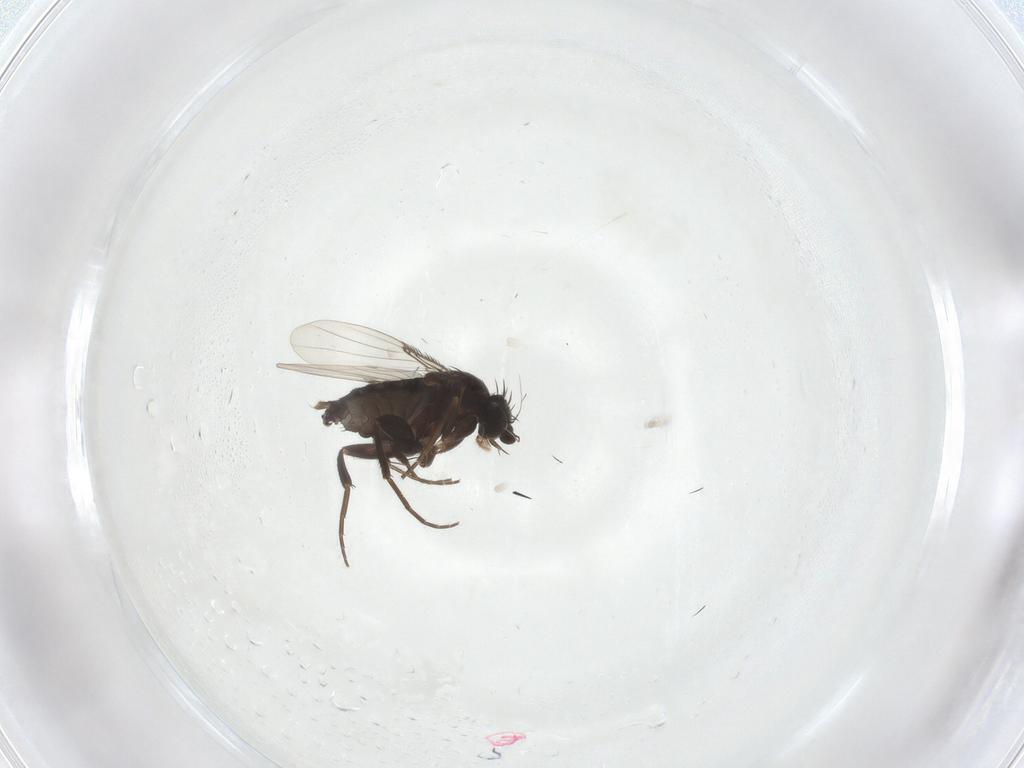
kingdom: Animalia
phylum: Arthropoda
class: Insecta
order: Diptera
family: Phoridae
